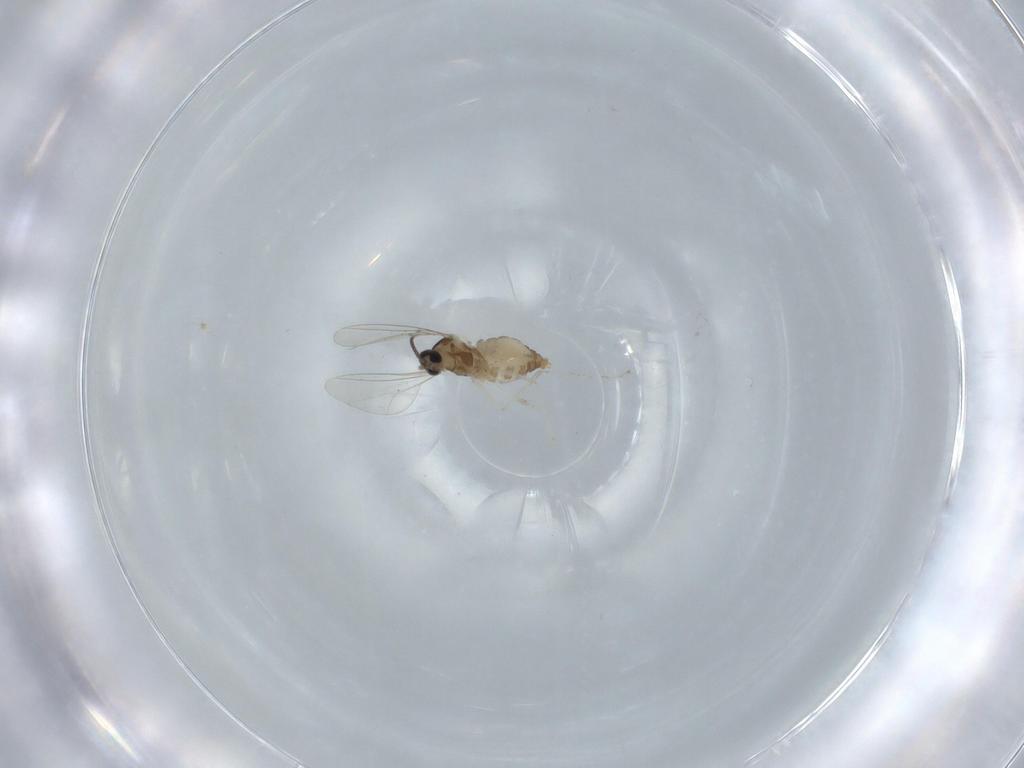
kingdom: Animalia
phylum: Arthropoda
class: Insecta
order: Diptera
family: Cecidomyiidae
